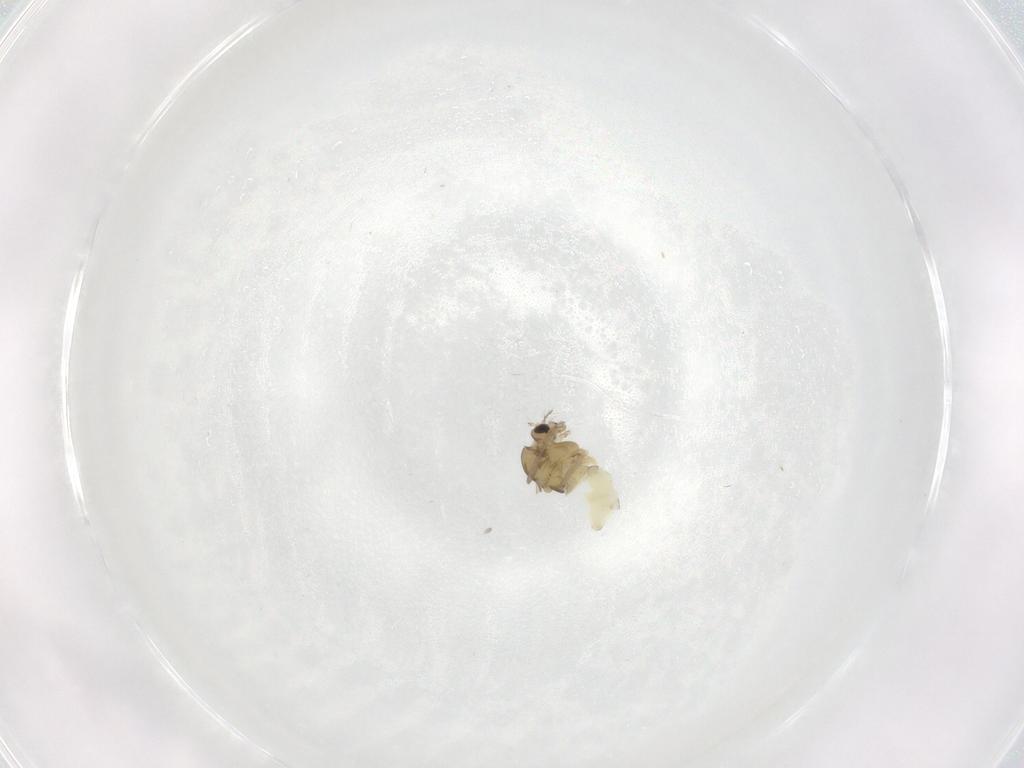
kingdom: Animalia
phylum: Arthropoda
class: Insecta
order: Diptera
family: Chironomidae
